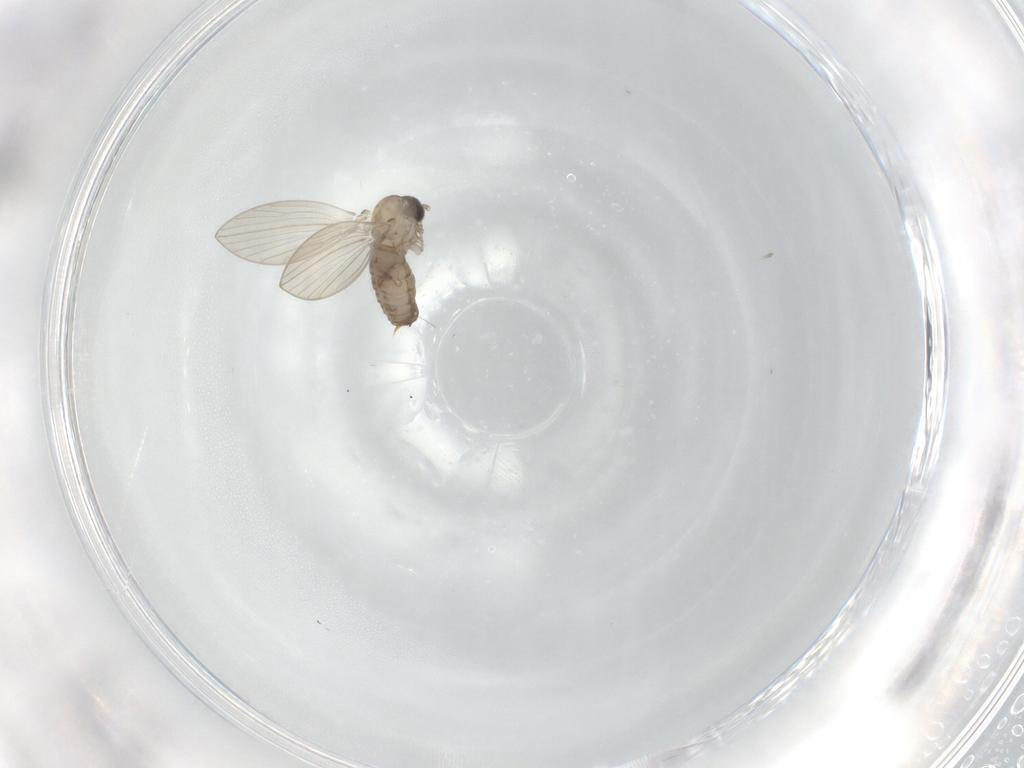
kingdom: Animalia
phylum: Arthropoda
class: Insecta
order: Diptera
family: Psychodidae
